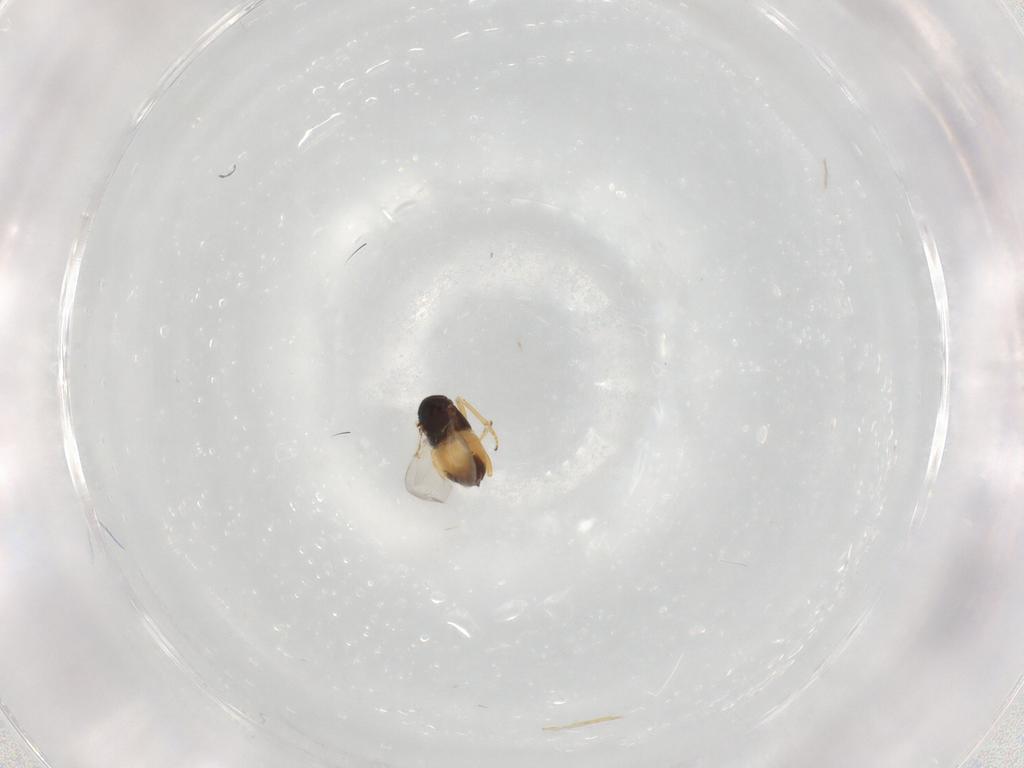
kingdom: Animalia
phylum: Arthropoda
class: Insecta
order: Hymenoptera
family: Encyrtidae
